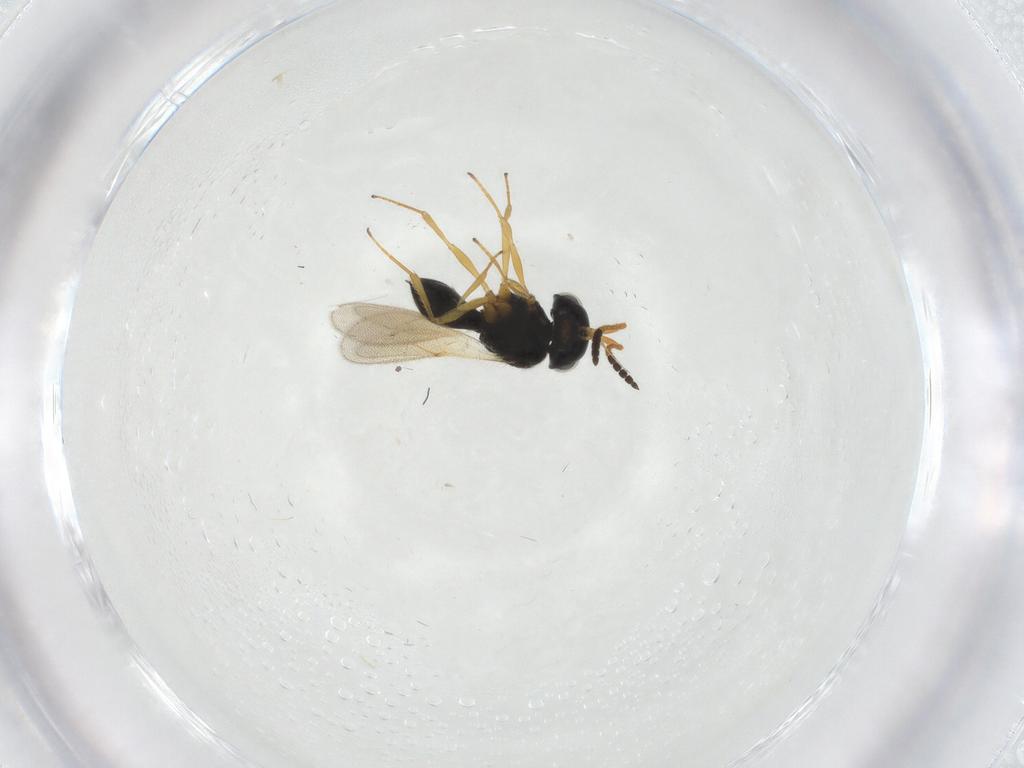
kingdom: Animalia
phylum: Arthropoda
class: Insecta
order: Hymenoptera
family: Scelionidae
